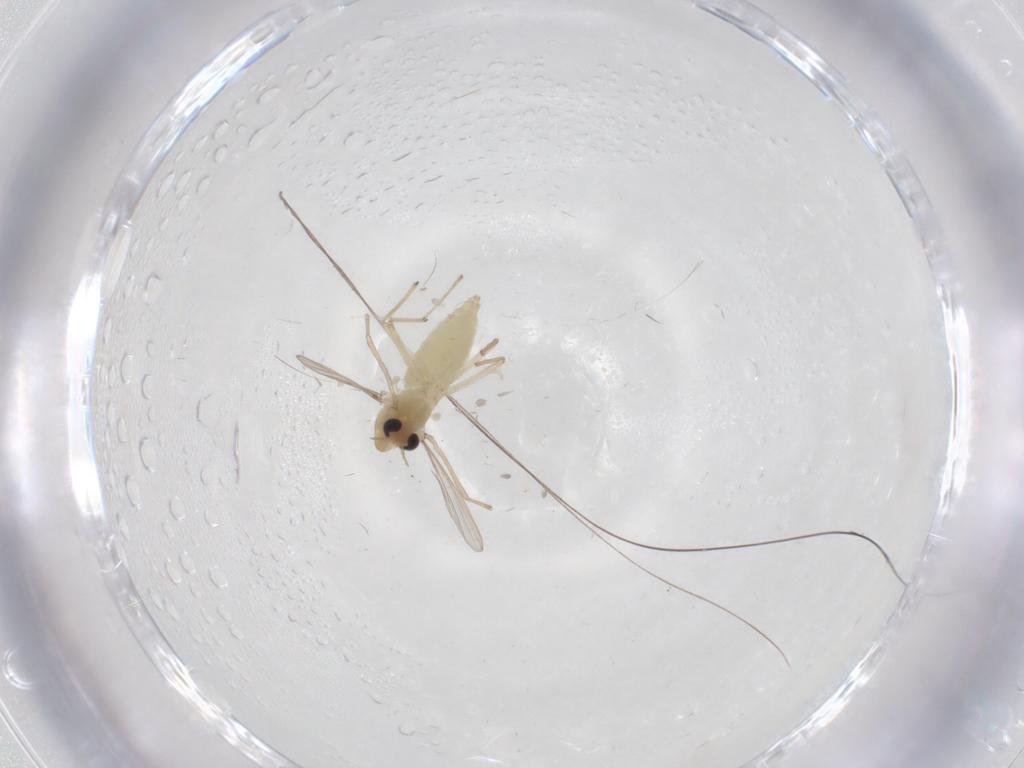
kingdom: Animalia
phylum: Arthropoda
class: Insecta
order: Diptera
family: Chironomidae
